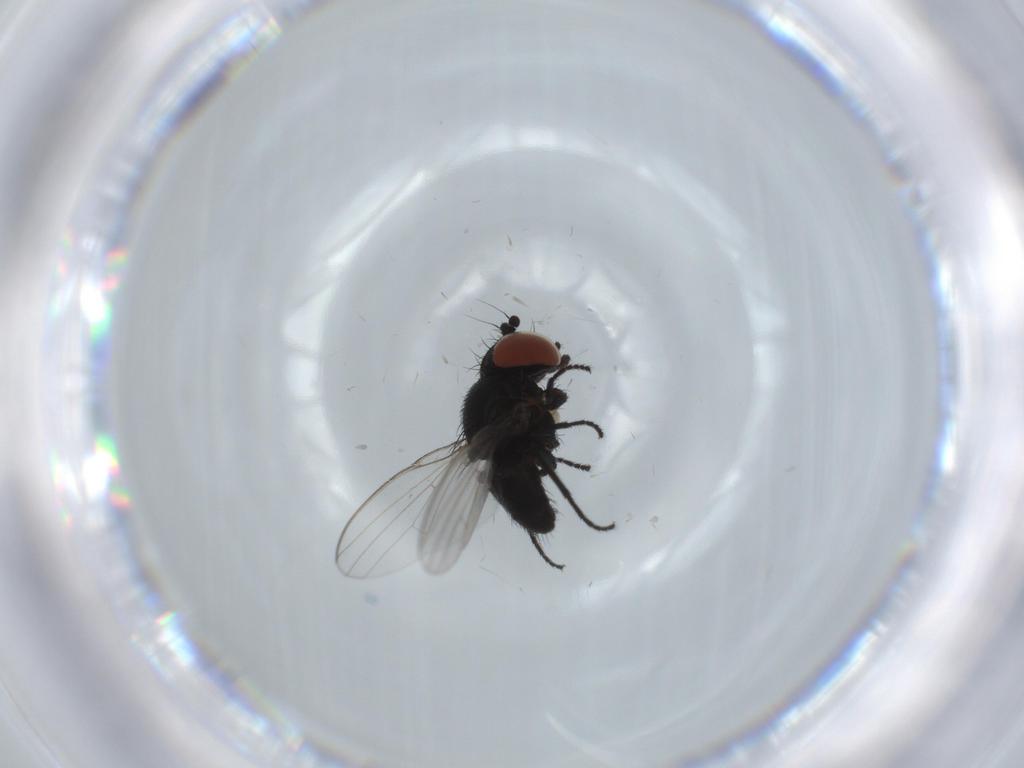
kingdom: Animalia
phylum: Arthropoda
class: Insecta
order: Diptera
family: Milichiidae
